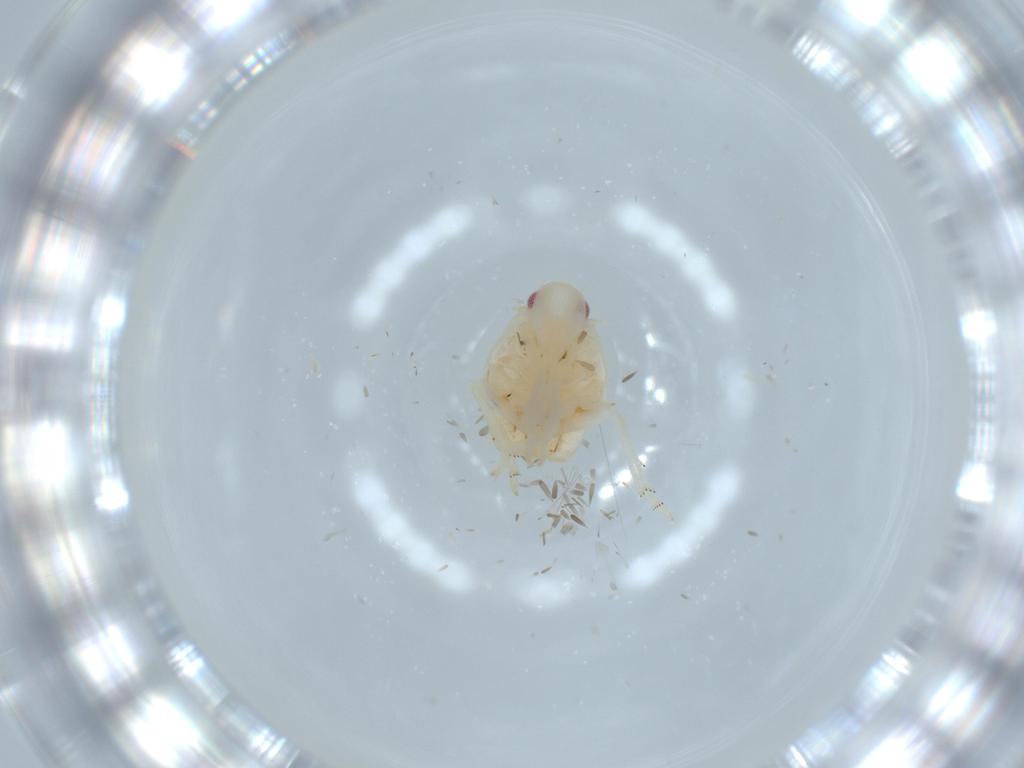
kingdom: Animalia
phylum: Arthropoda
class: Insecta
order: Hemiptera
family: Flatidae
